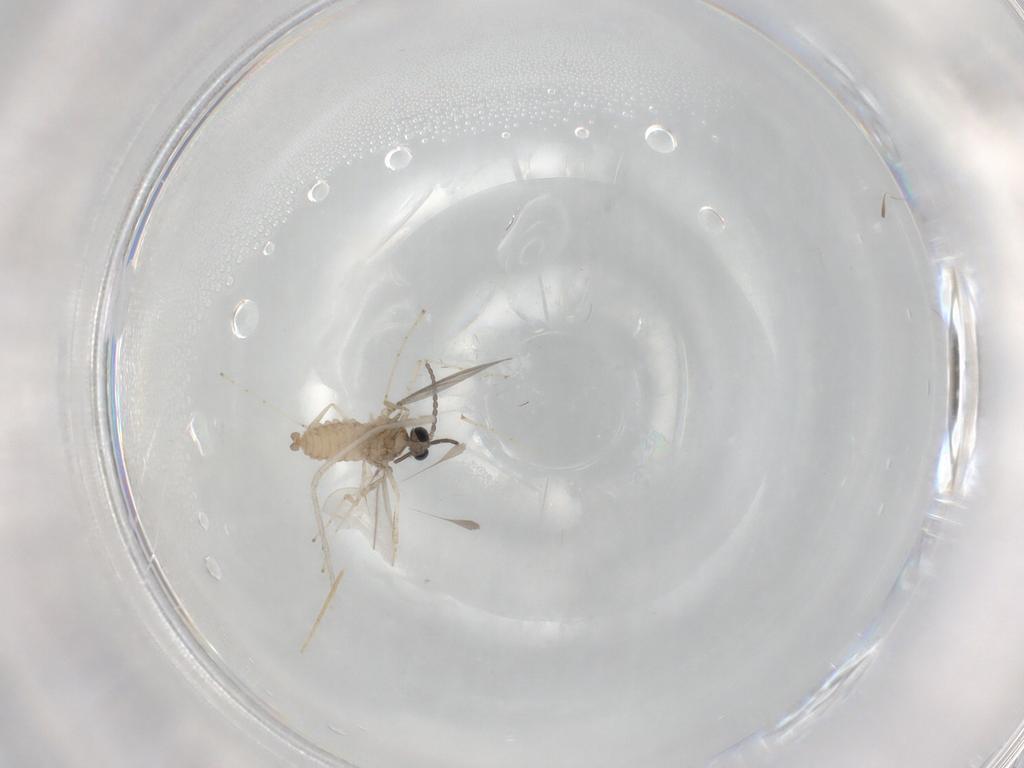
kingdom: Animalia
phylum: Arthropoda
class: Insecta
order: Diptera
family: Cecidomyiidae
